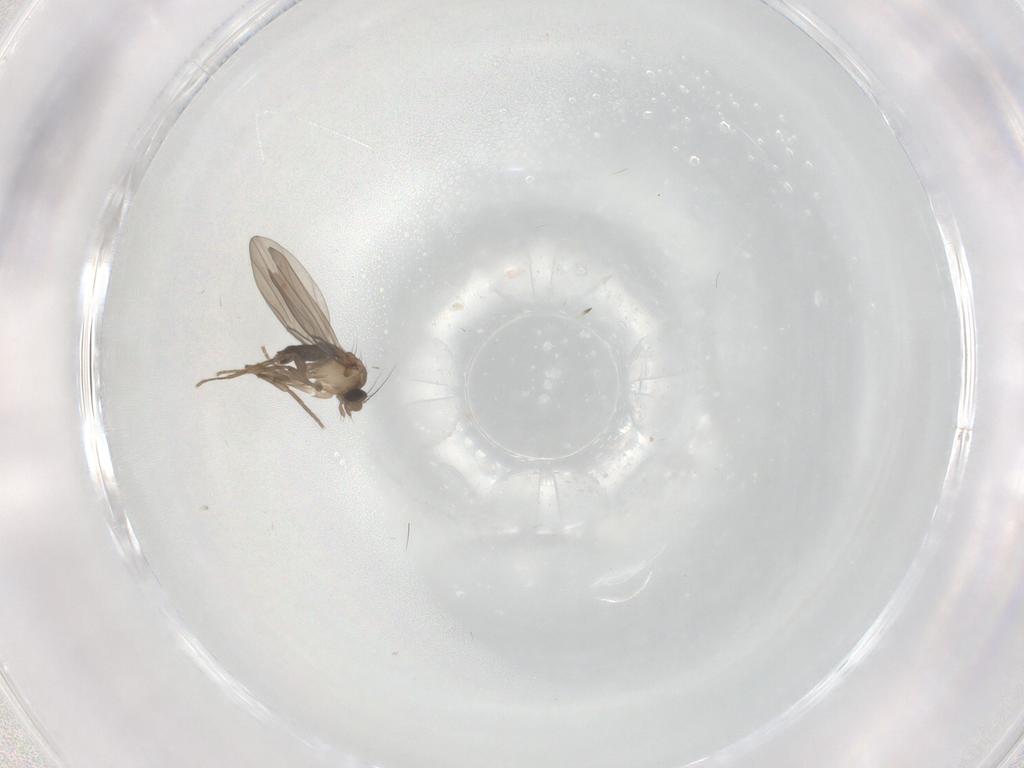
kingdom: Animalia
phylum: Arthropoda
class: Insecta
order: Diptera
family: Phoridae
